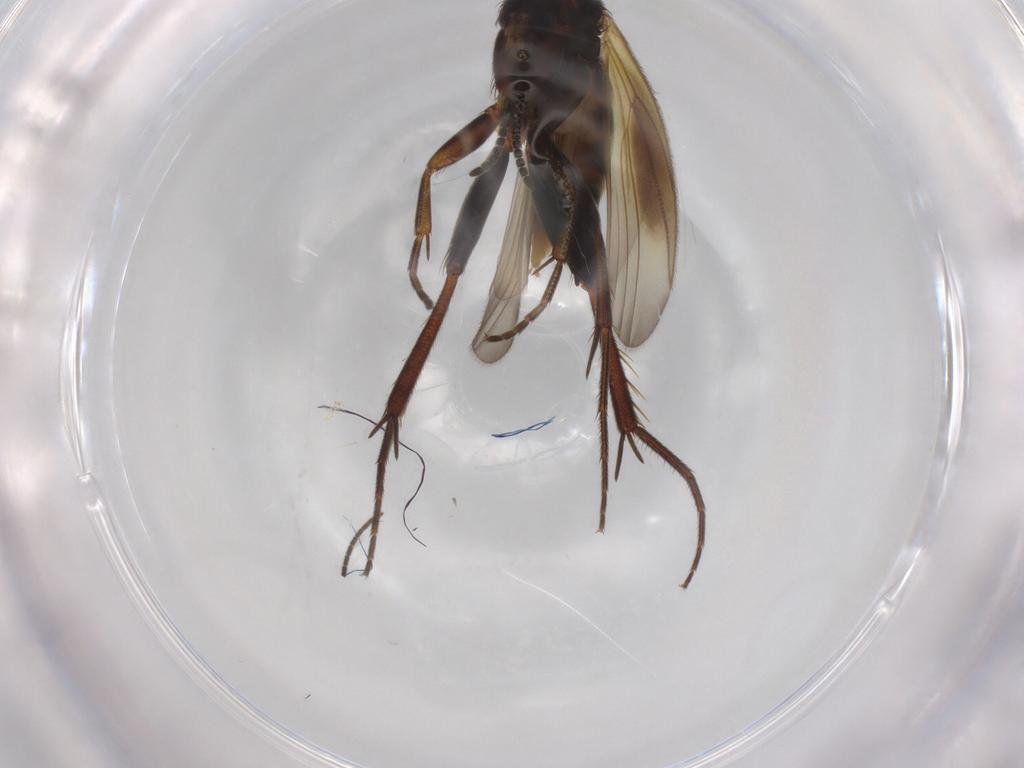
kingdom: Animalia
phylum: Arthropoda
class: Insecta
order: Diptera
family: Sciaridae
